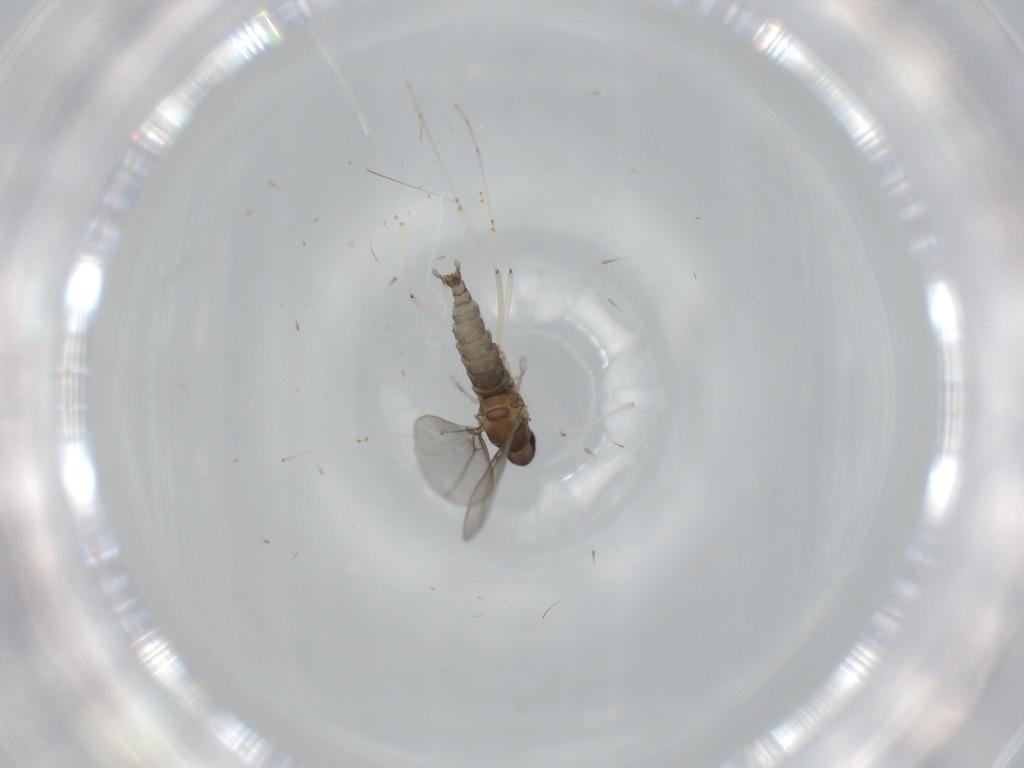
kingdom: Animalia
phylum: Arthropoda
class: Insecta
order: Diptera
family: Cecidomyiidae
